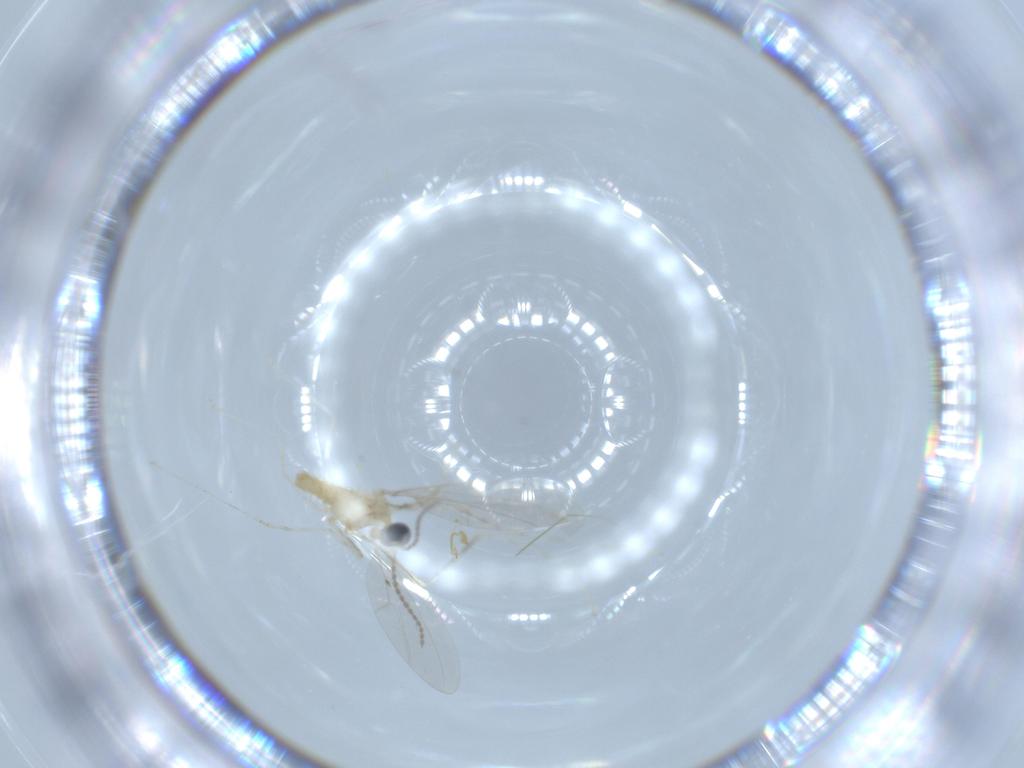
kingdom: Animalia
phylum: Arthropoda
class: Insecta
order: Diptera
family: Cecidomyiidae
